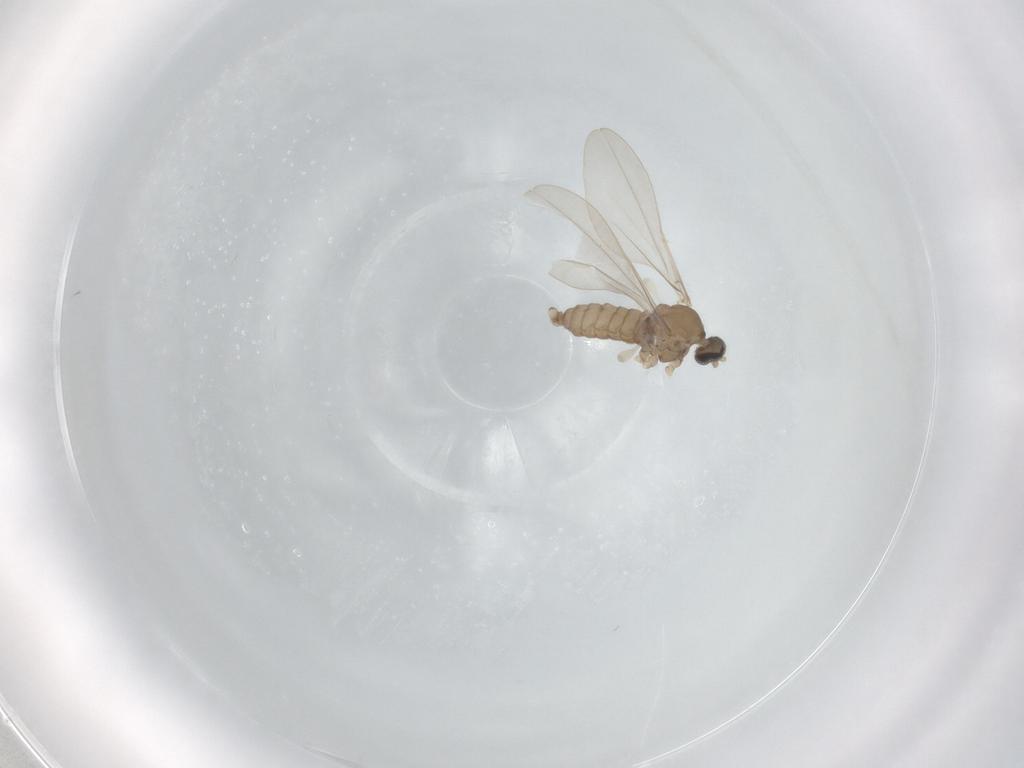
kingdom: Animalia
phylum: Arthropoda
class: Insecta
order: Diptera
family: Cecidomyiidae
